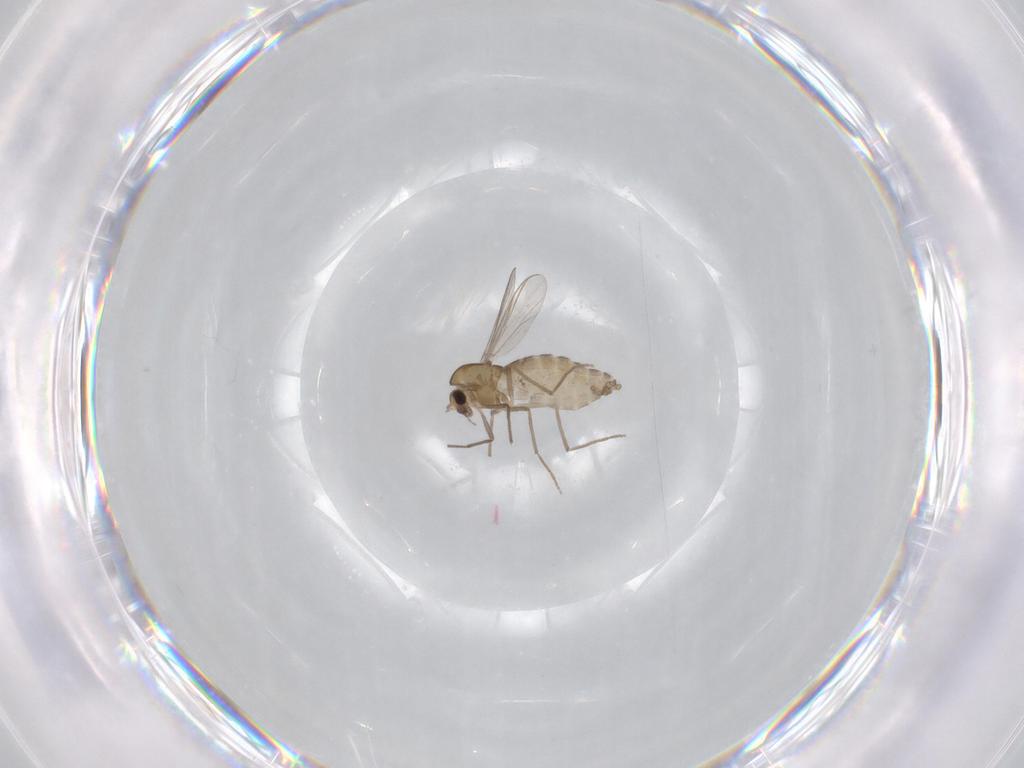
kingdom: Animalia
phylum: Arthropoda
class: Insecta
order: Diptera
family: Chironomidae
